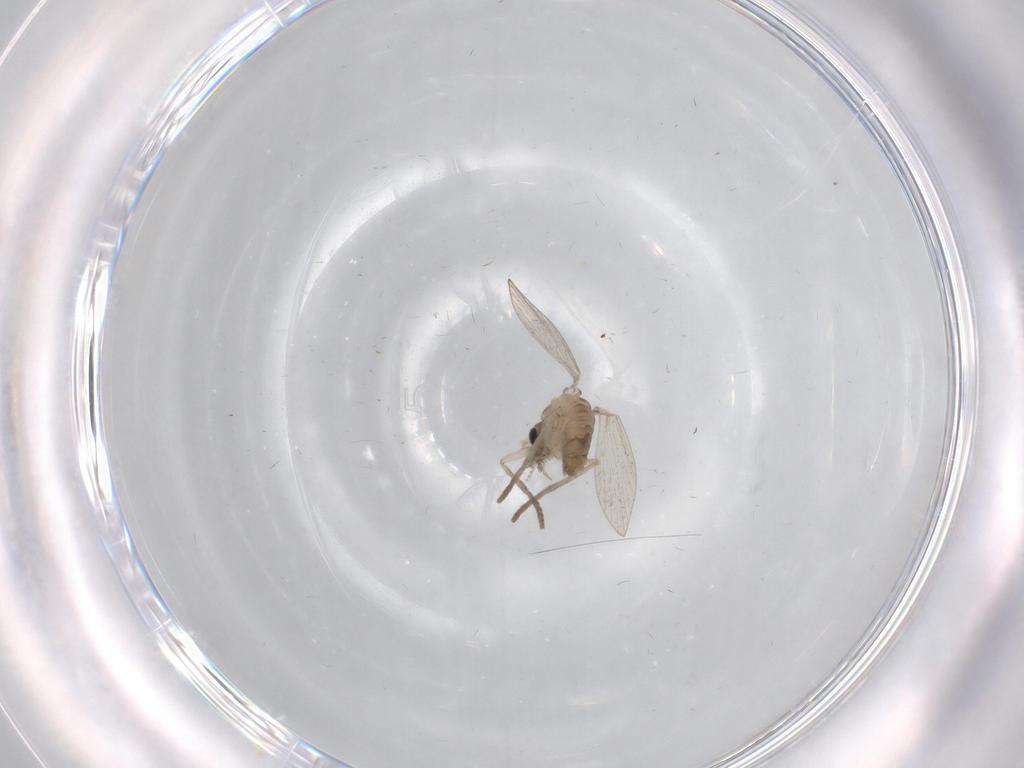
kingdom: Animalia
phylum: Arthropoda
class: Insecta
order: Diptera
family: Psychodidae
